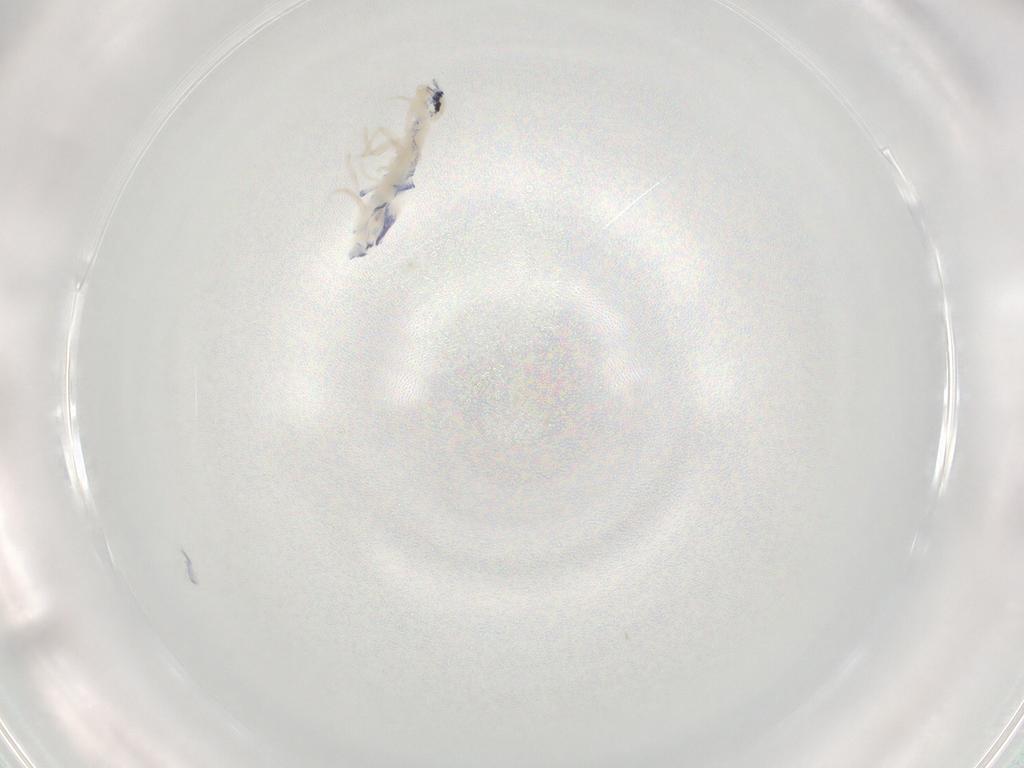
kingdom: Animalia
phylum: Arthropoda
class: Collembola
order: Entomobryomorpha
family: Entomobryidae
